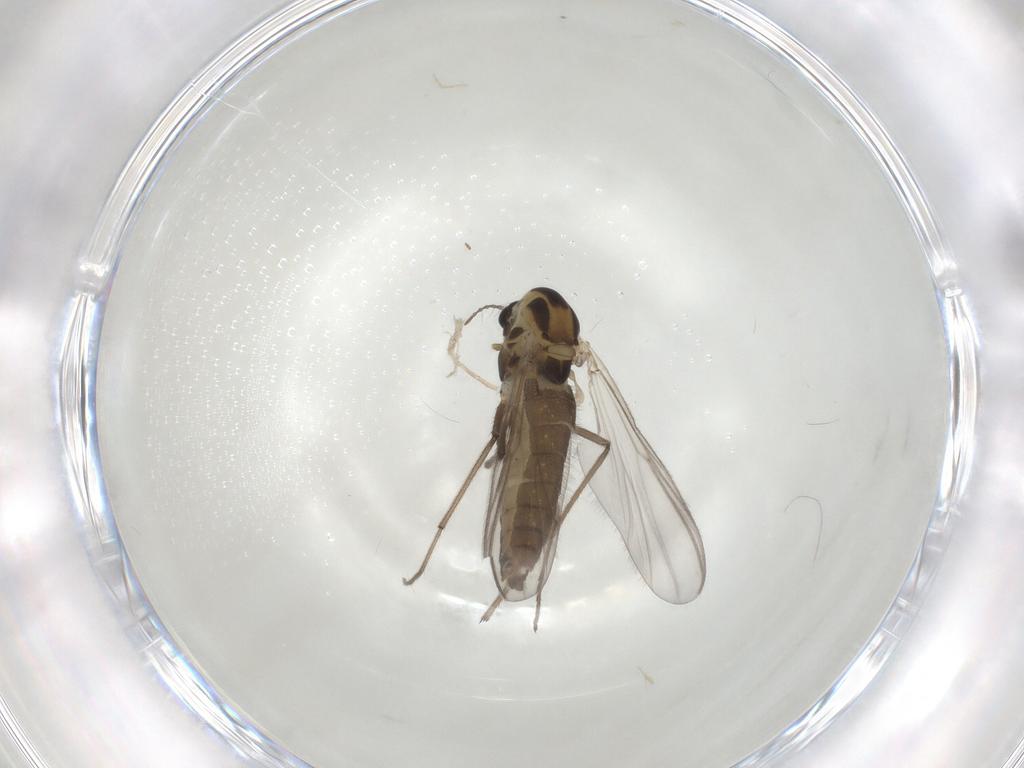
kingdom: Animalia
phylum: Arthropoda
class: Insecta
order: Diptera
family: Chironomidae
